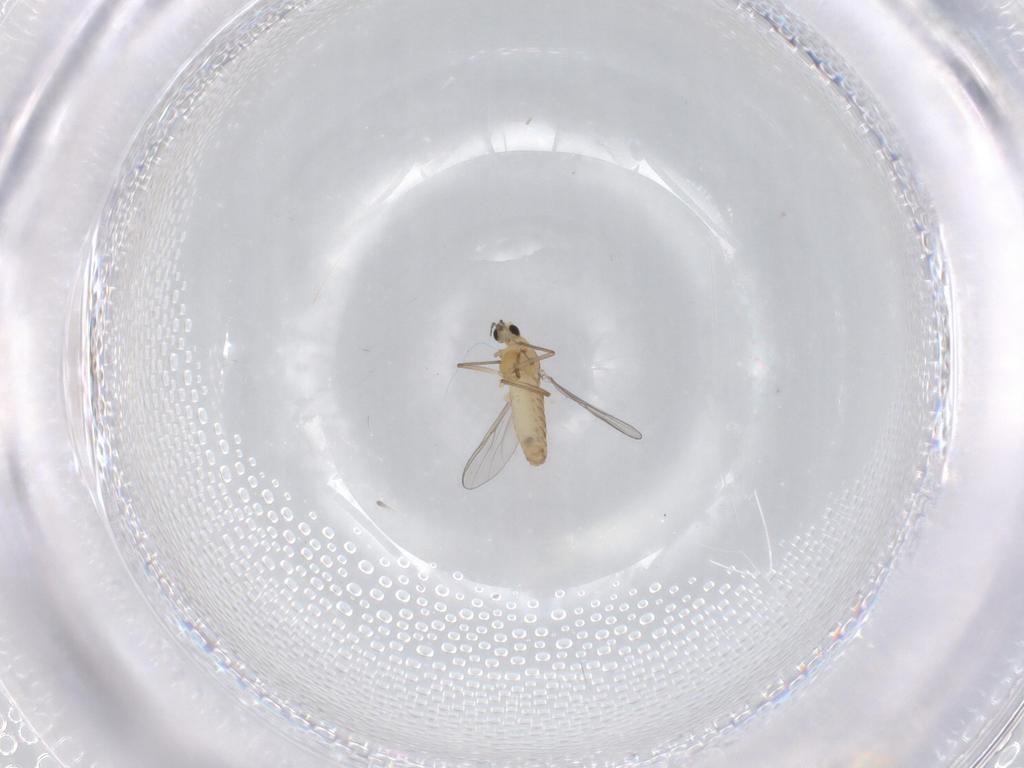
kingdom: Animalia
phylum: Arthropoda
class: Insecta
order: Diptera
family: Chironomidae
